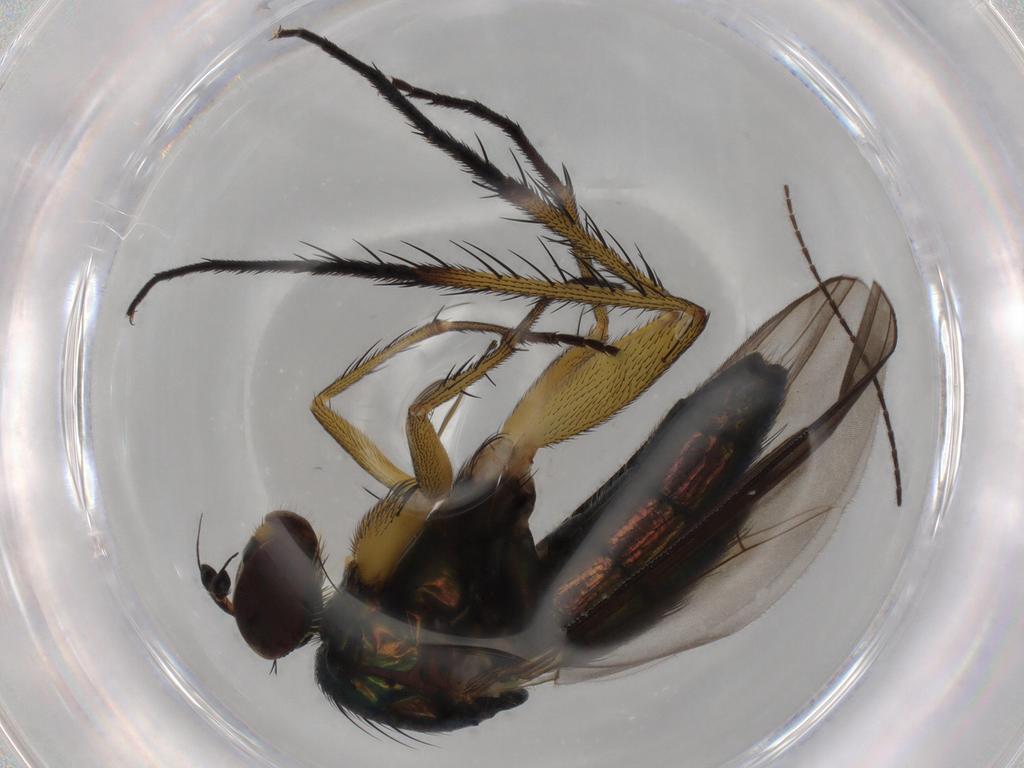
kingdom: Animalia
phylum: Arthropoda
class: Insecta
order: Diptera
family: Dolichopodidae
